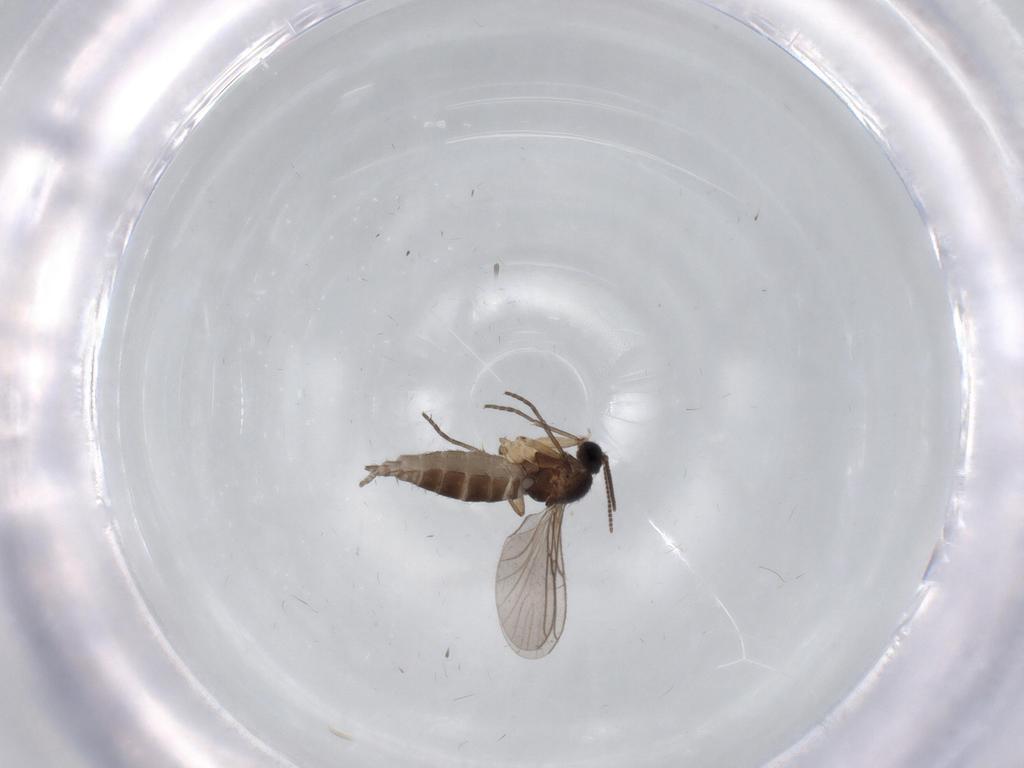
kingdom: Animalia
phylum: Arthropoda
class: Insecta
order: Diptera
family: Sciaridae
